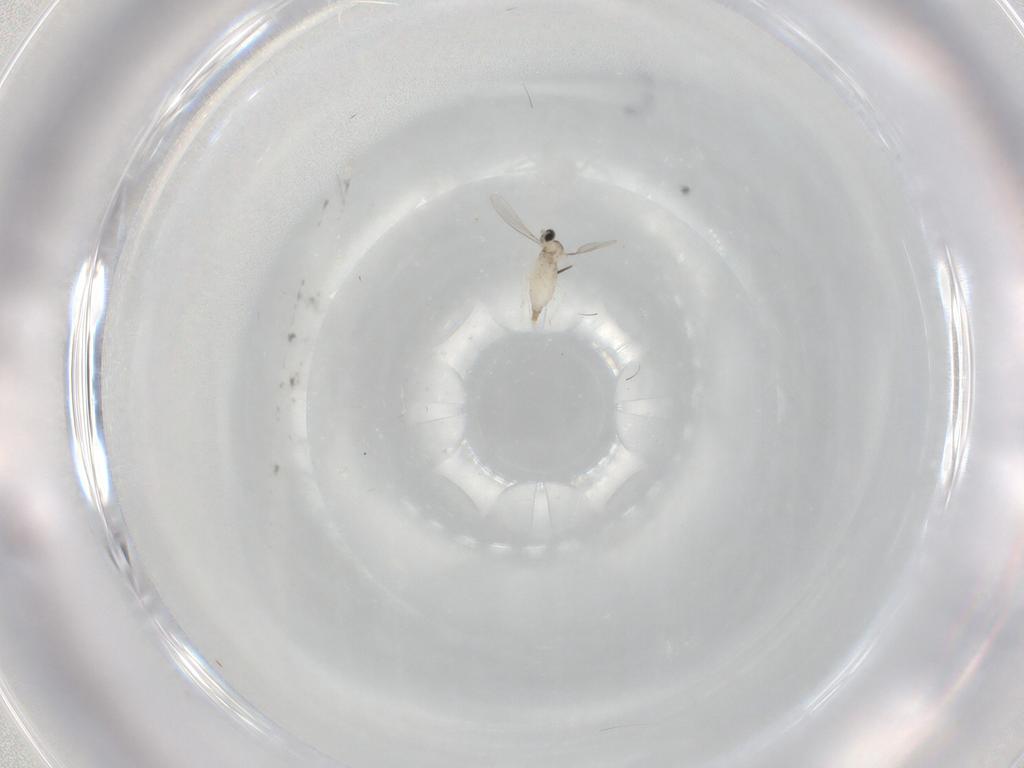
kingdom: Animalia
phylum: Arthropoda
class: Insecta
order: Diptera
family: Psychodidae
